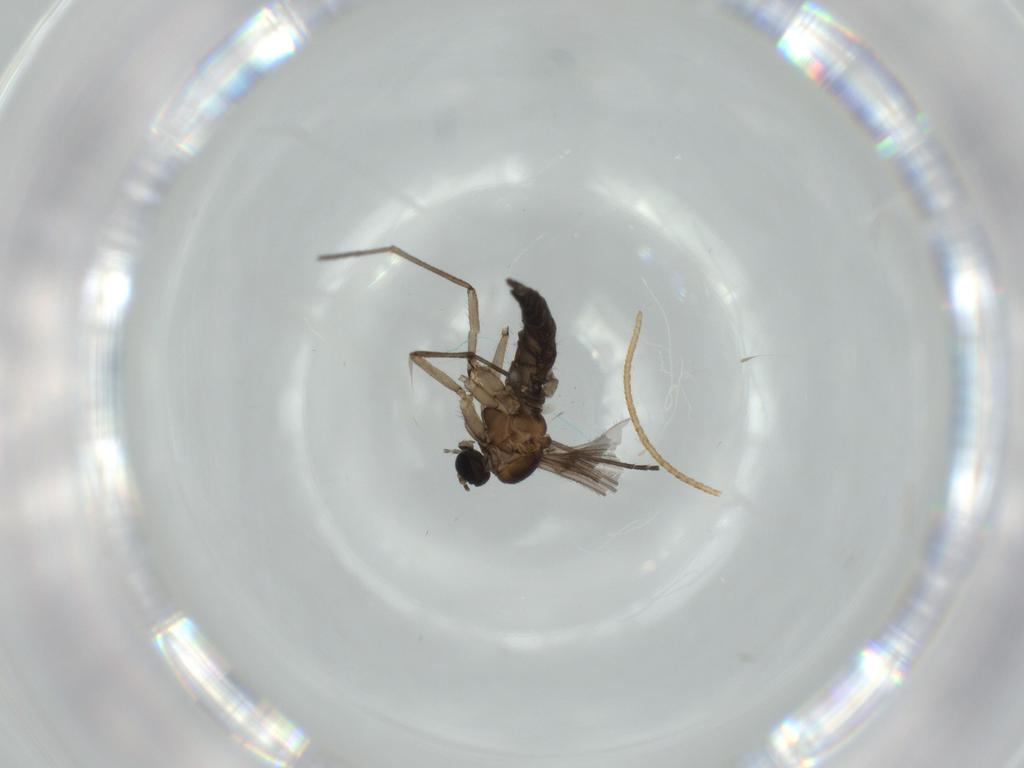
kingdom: Animalia
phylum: Arthropoda
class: Insecta
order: Diptera
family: Sciaridae
